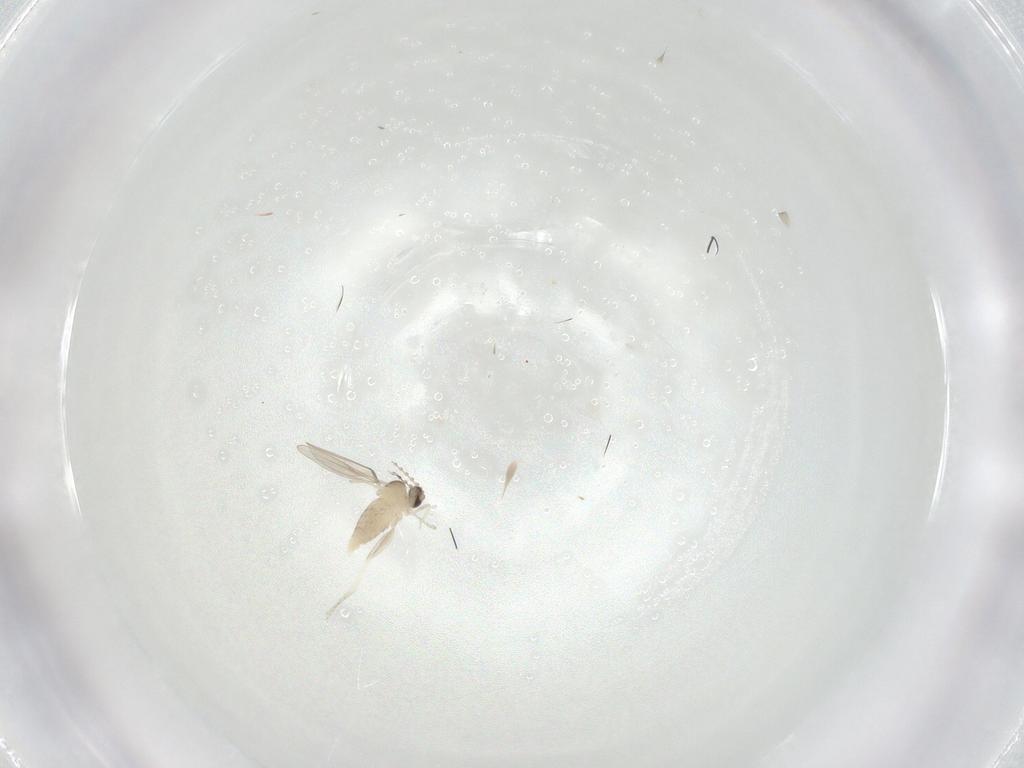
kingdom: Animalia
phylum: Arthropoda
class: Insecta
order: Diptera
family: Cecidomyiidae
